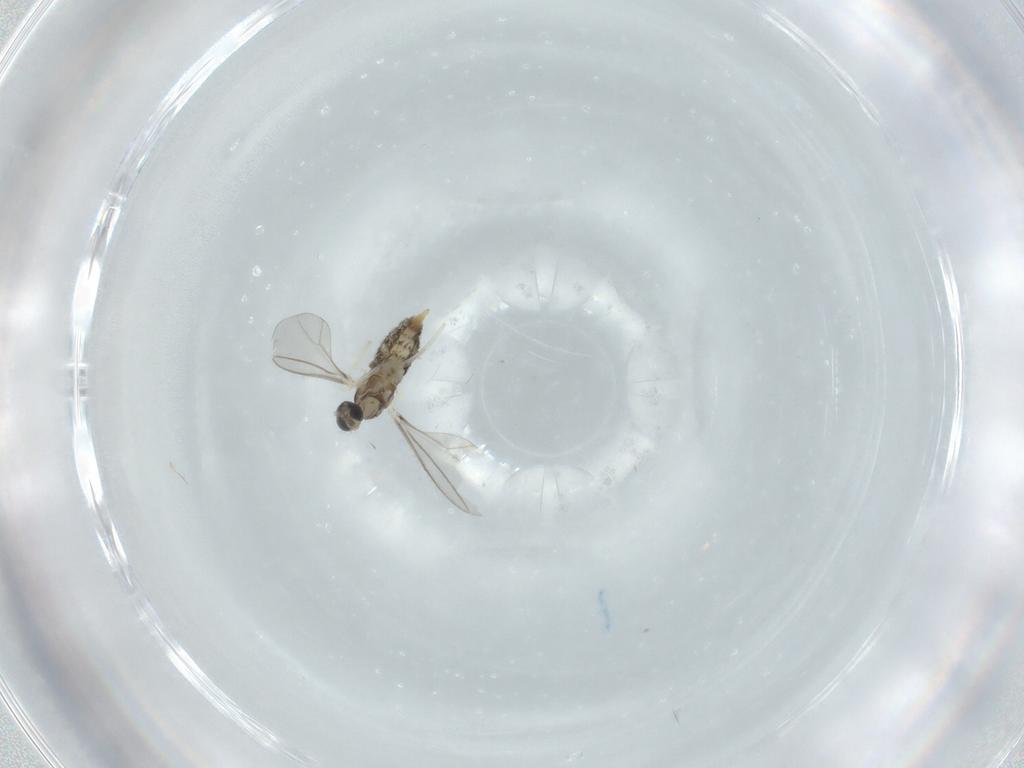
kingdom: Animalia
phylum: Arthropoda
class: Insecta
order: Diptera
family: Cecidomyiidae
